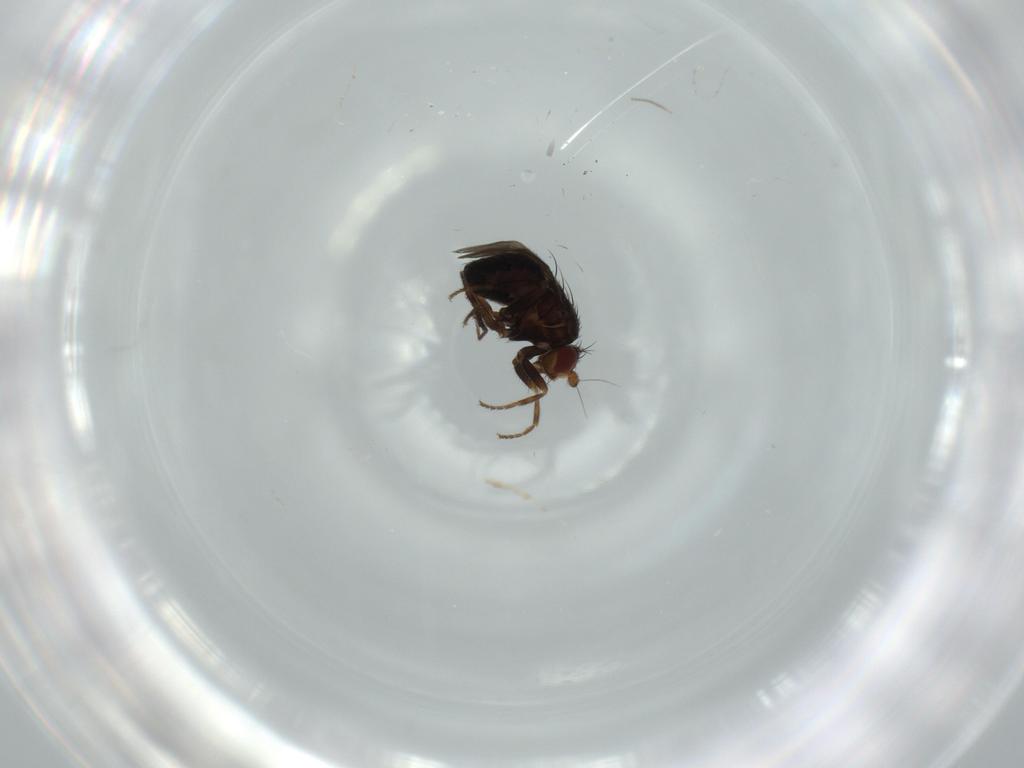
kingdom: Animalia
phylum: Arthropoda
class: Insecta
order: Diptera
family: Sphaeroceridae
